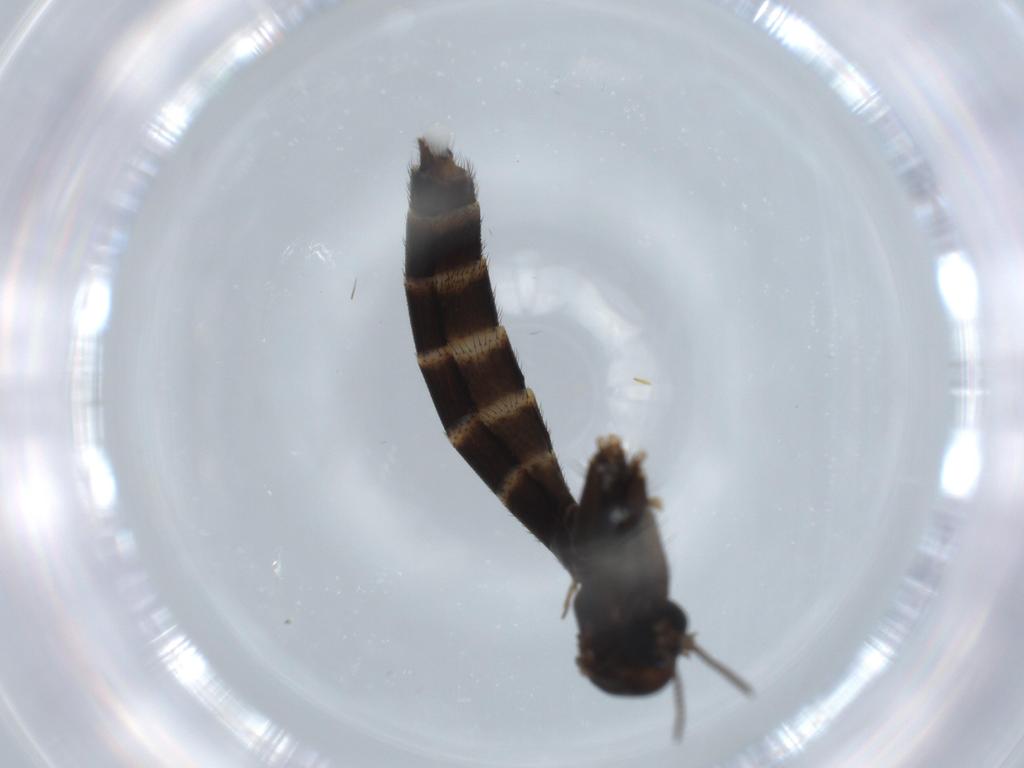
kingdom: Animalia
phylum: Arthropoda
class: Insecta
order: Diptera
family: Ditomyiidae
